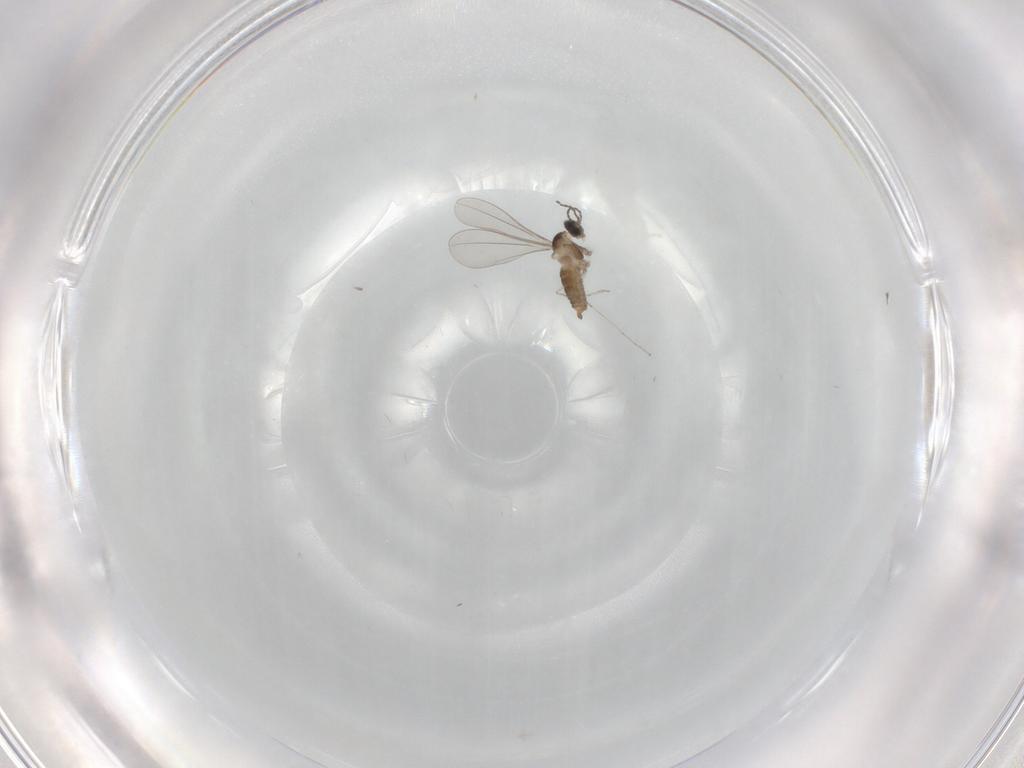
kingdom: Animalia
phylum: Arthropoda
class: Insecta
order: Diptera
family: Cecidomyiidae
